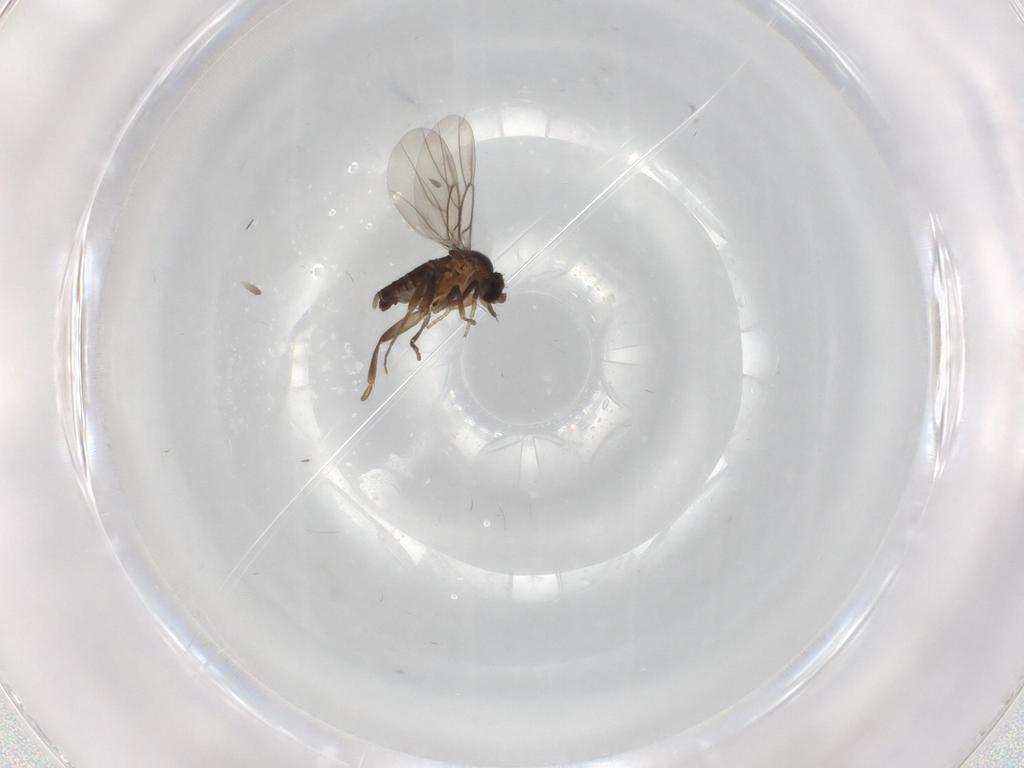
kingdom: Animalia
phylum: Arthropoda
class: Insecta
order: Diptera
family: Phoridae
